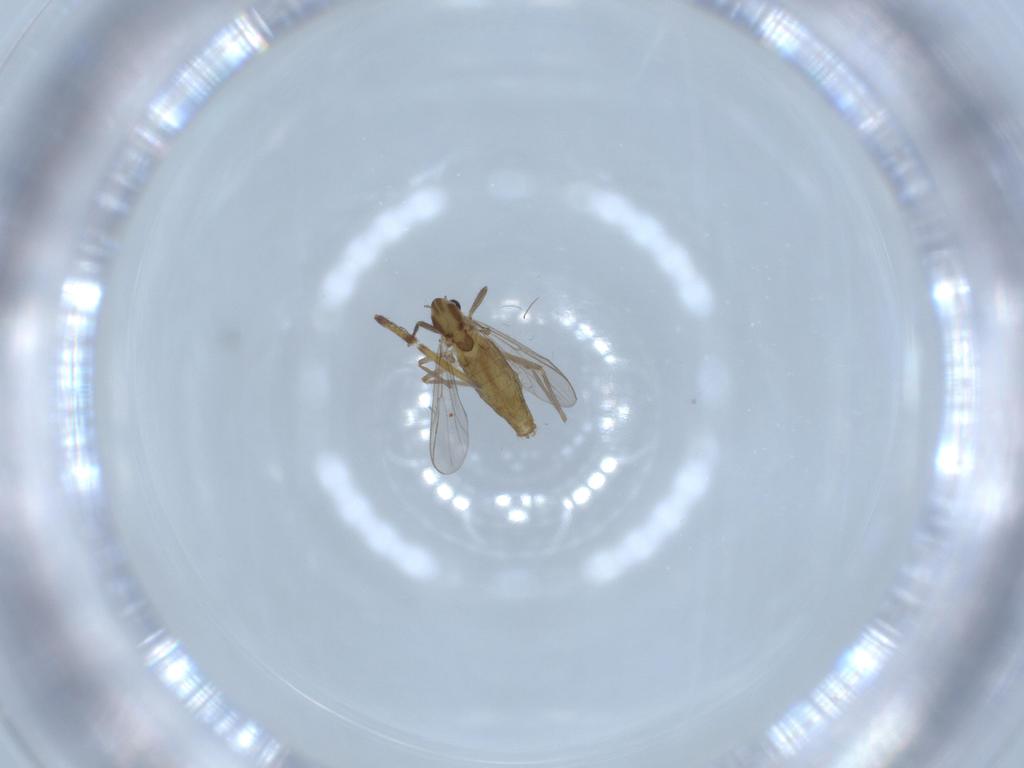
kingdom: Animalia
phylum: Arthropoda
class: Insecta
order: Diptera
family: Chironomidae
